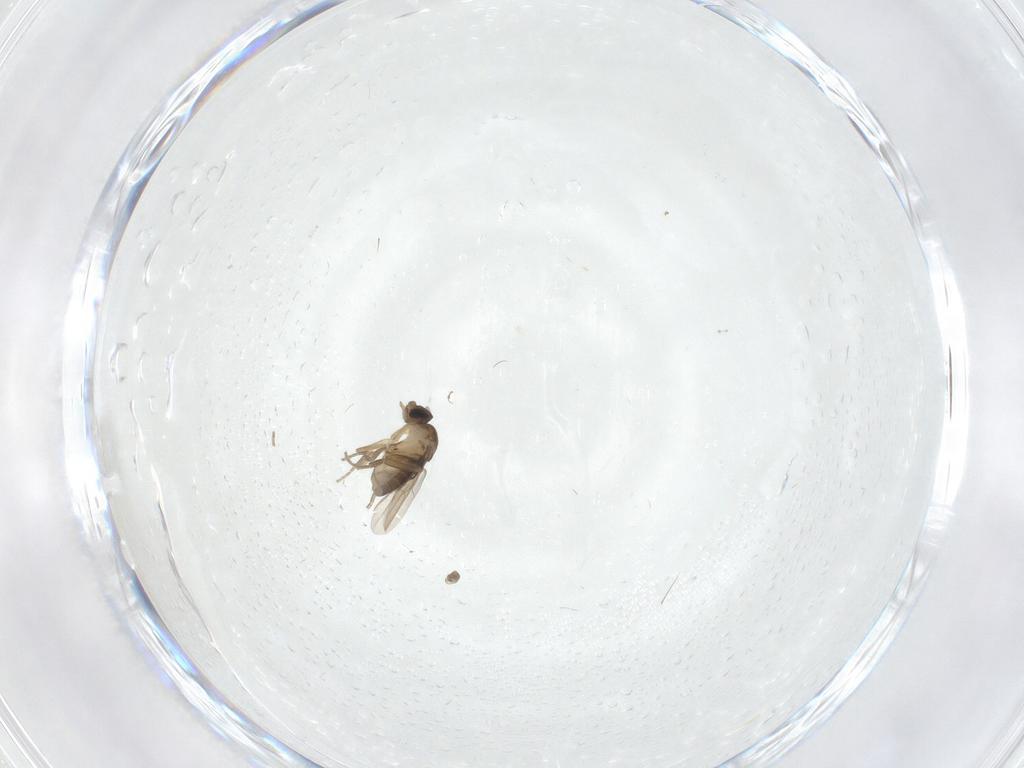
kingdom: Animalia
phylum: Arthropoda
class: Insecta
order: Diptera
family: Phoridae
